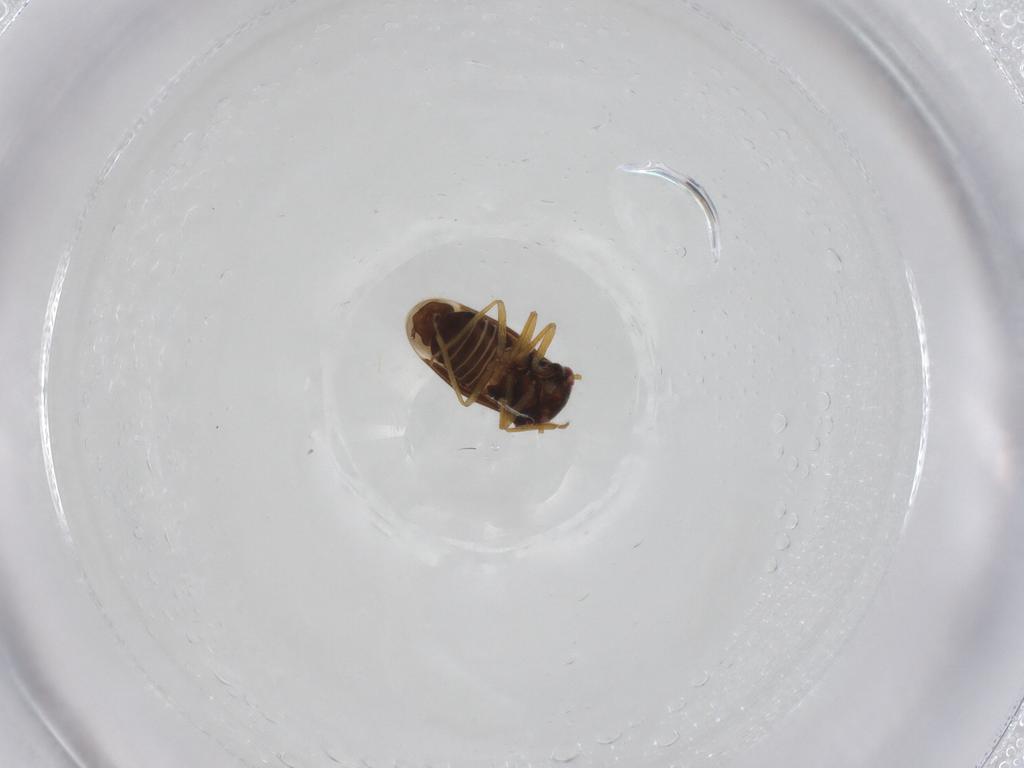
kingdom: Animalia
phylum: Arthropoda
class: Insecta
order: Hemiptera
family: Schizopteridae
